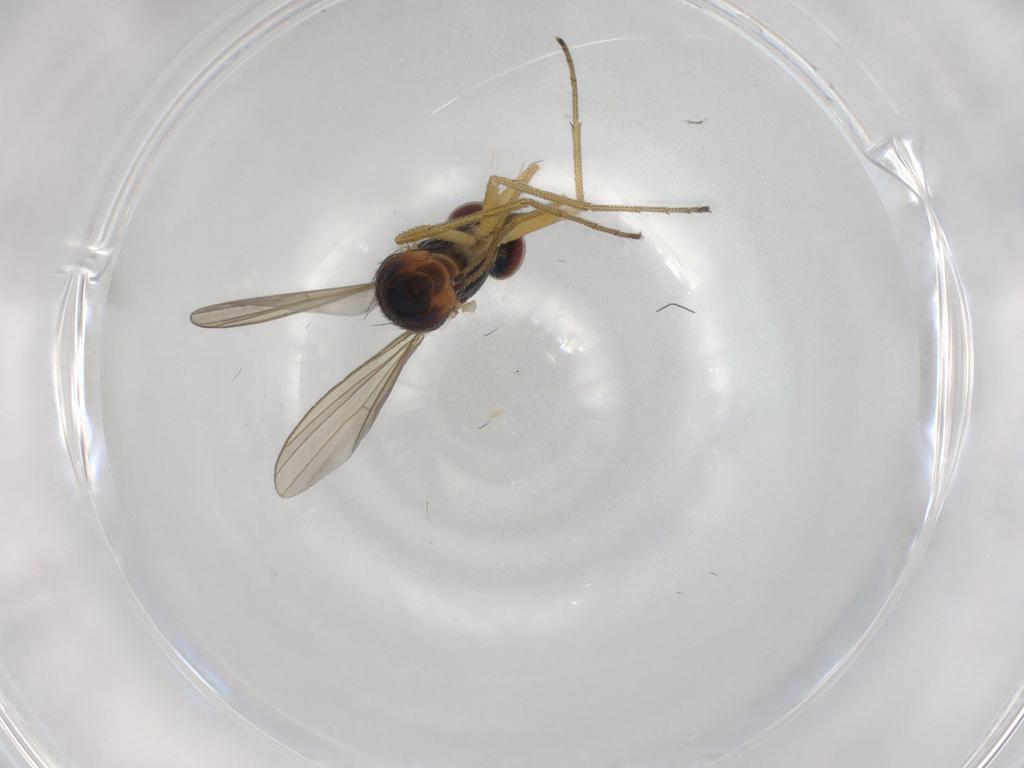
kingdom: Animalia
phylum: Arthropoda
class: Insecta
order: Diptera
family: Dolichopodidae
